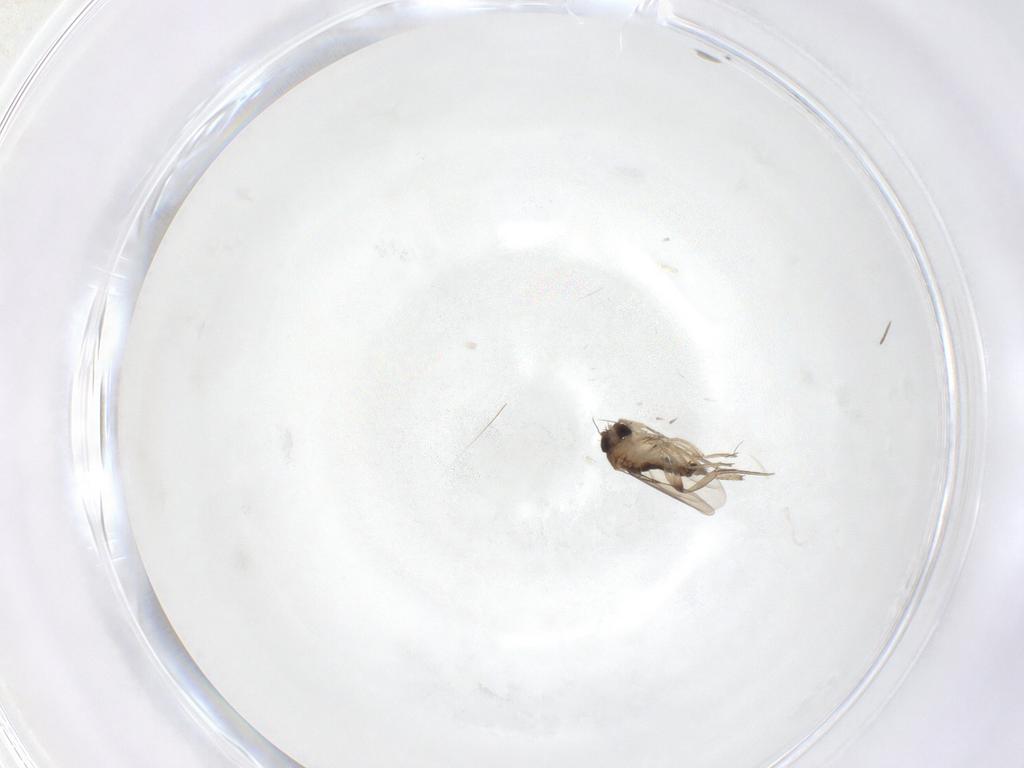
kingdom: Animalia
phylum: Arthropoda
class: Insecta
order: Diptera
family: Phoridae
